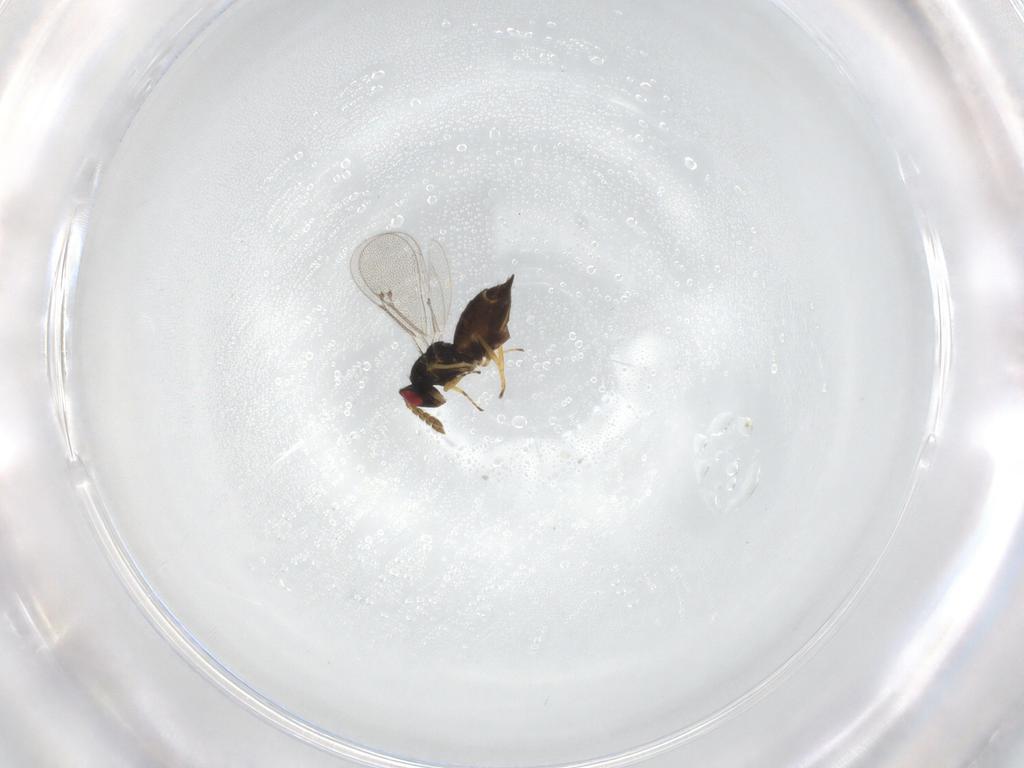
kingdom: Animalia
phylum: Arthropoda
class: Insecta
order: Hymenoptera
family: Eulophidae
